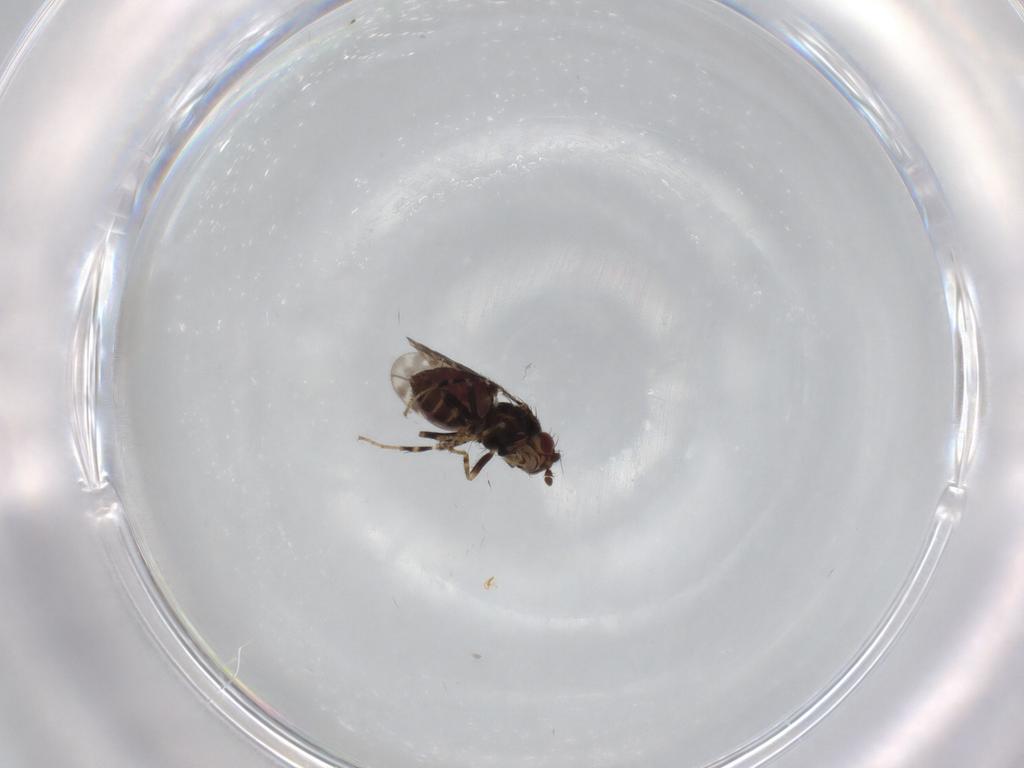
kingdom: Animalia
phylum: Arthropoda
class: Insecta
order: Diptera
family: Sphaeroceridae
